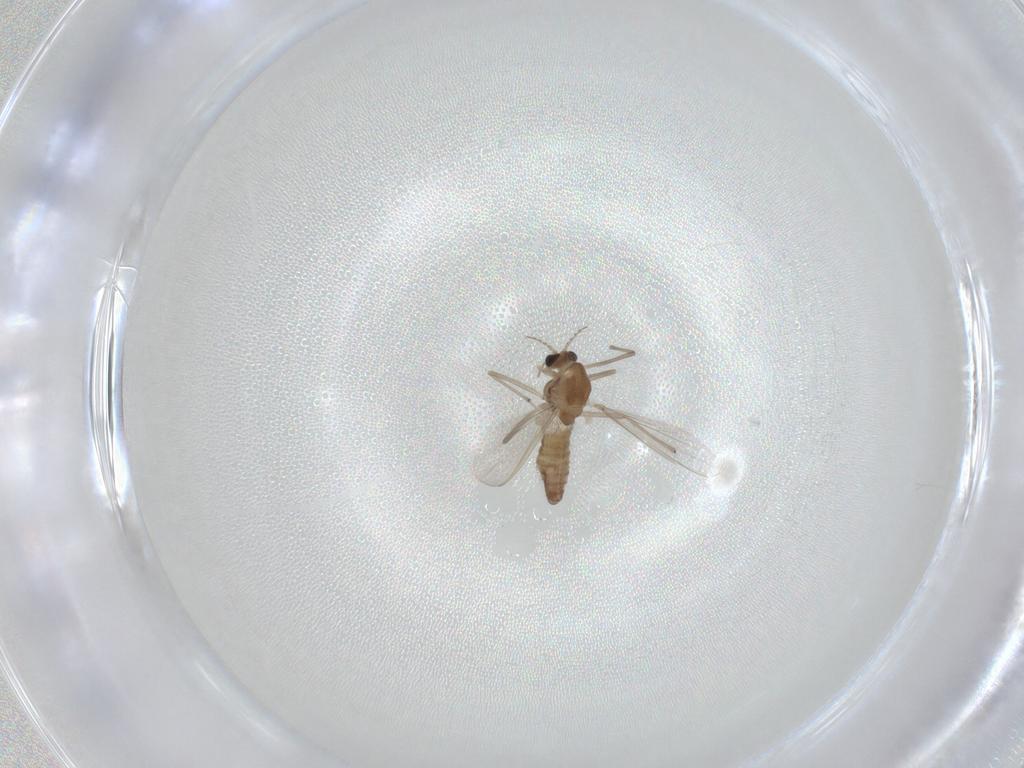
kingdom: Animalia
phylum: Arthropoda
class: Insecta
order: Diptera
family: Chironomidae
